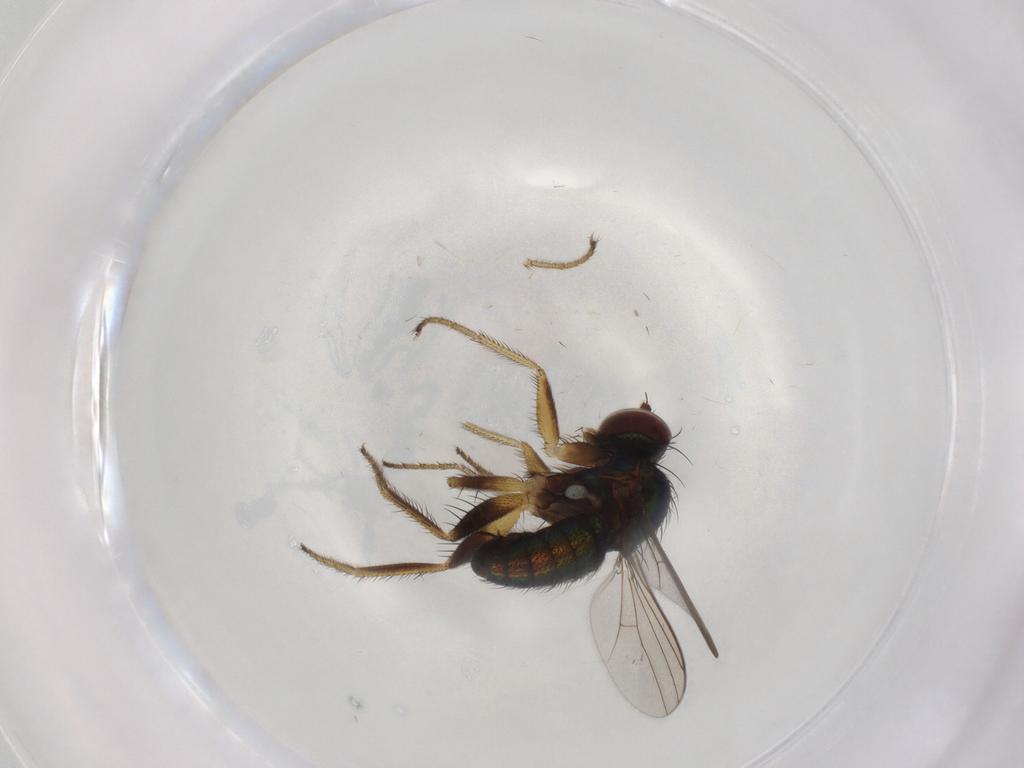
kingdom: Animalia
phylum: Arthropoda
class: Insecta
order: Diptera
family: Dolichopodidae
